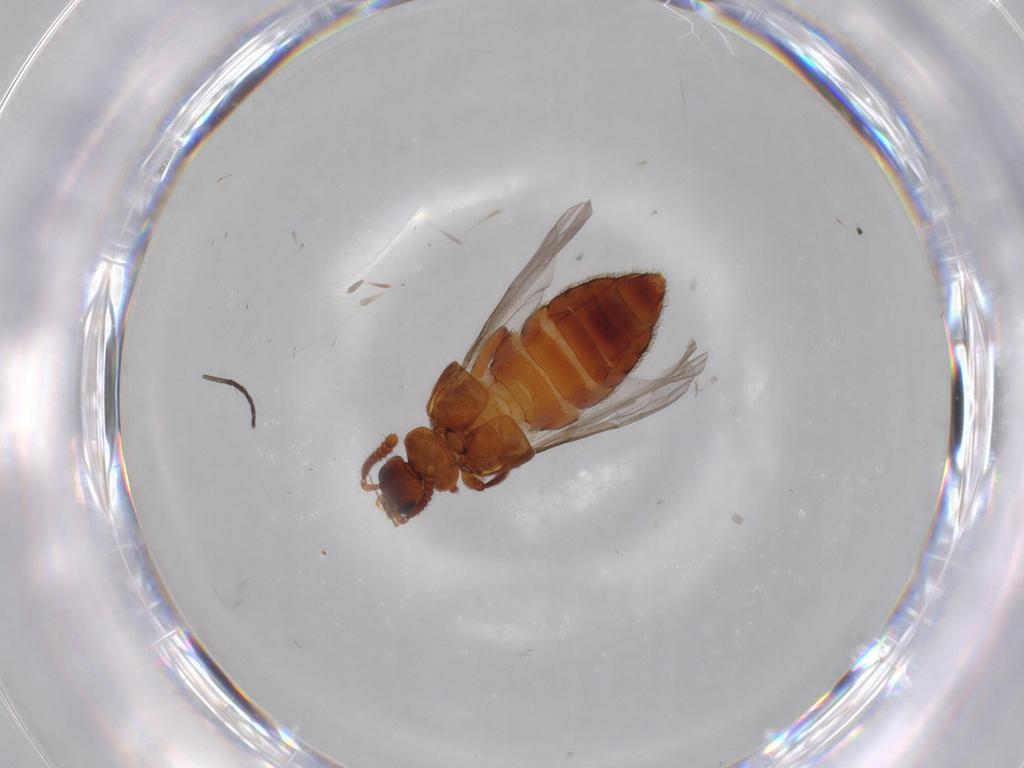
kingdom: Animalia
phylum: Arthropoda
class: Insecta
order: Coleoptera
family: Staphylinidae
